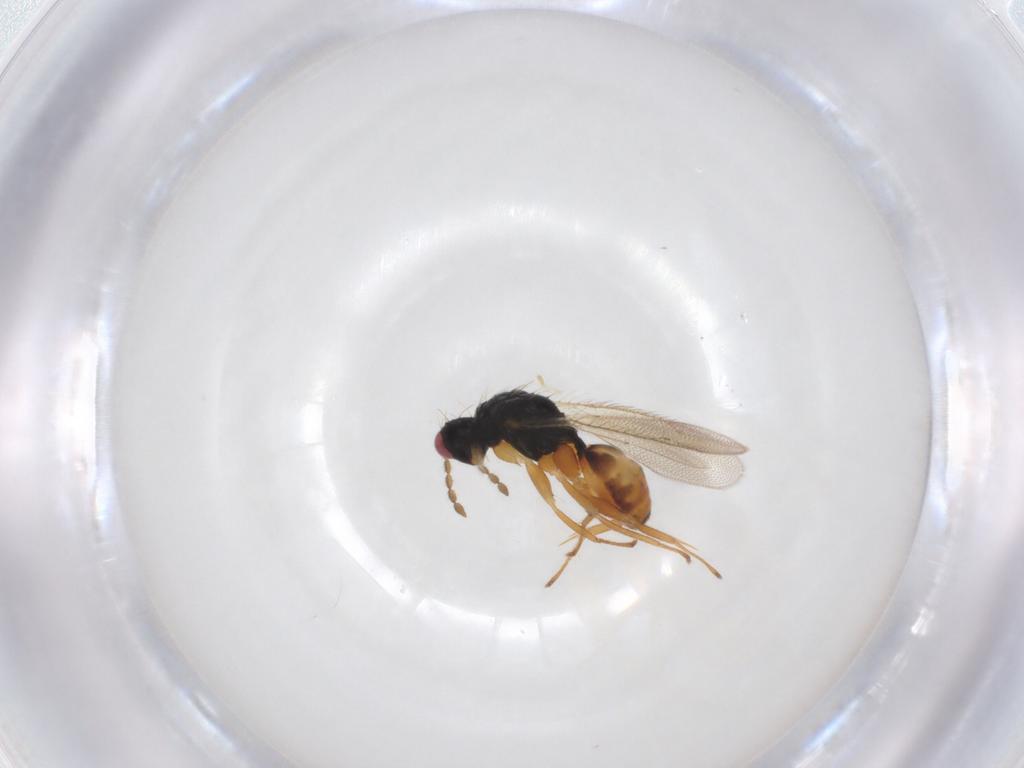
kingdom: Animalia
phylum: Arthropoda
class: Insecta
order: Hymenoptera
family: Eulophidae
